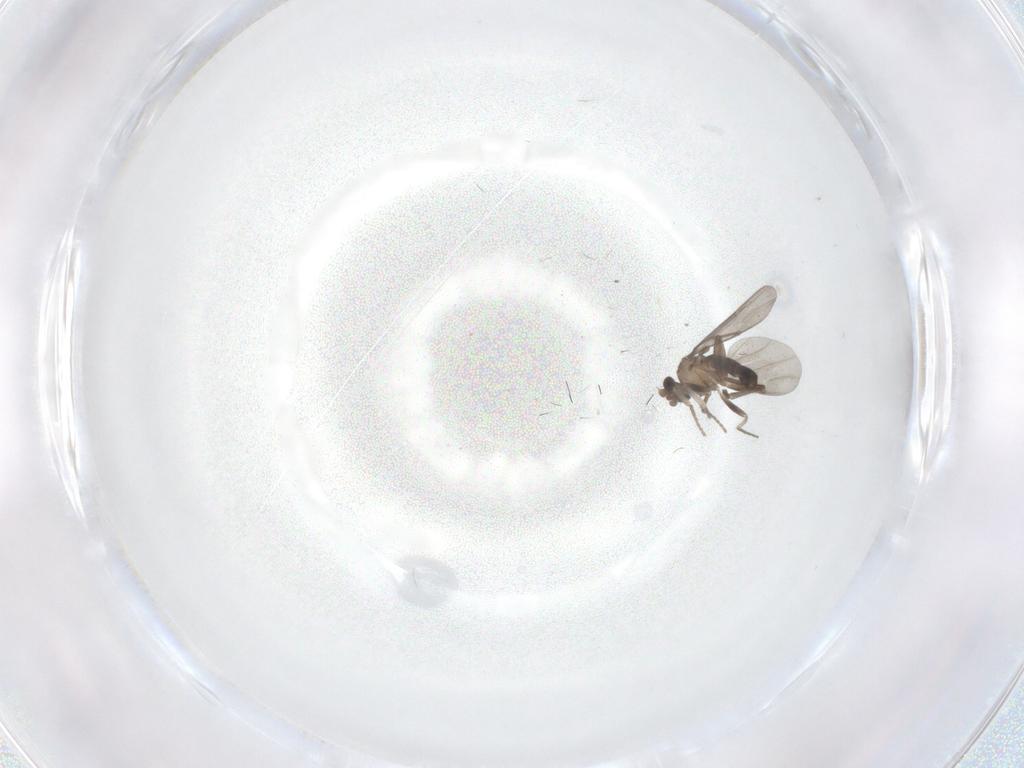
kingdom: Animalia
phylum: Arthropoda
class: Insecta
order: Diptera
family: Phoridae
